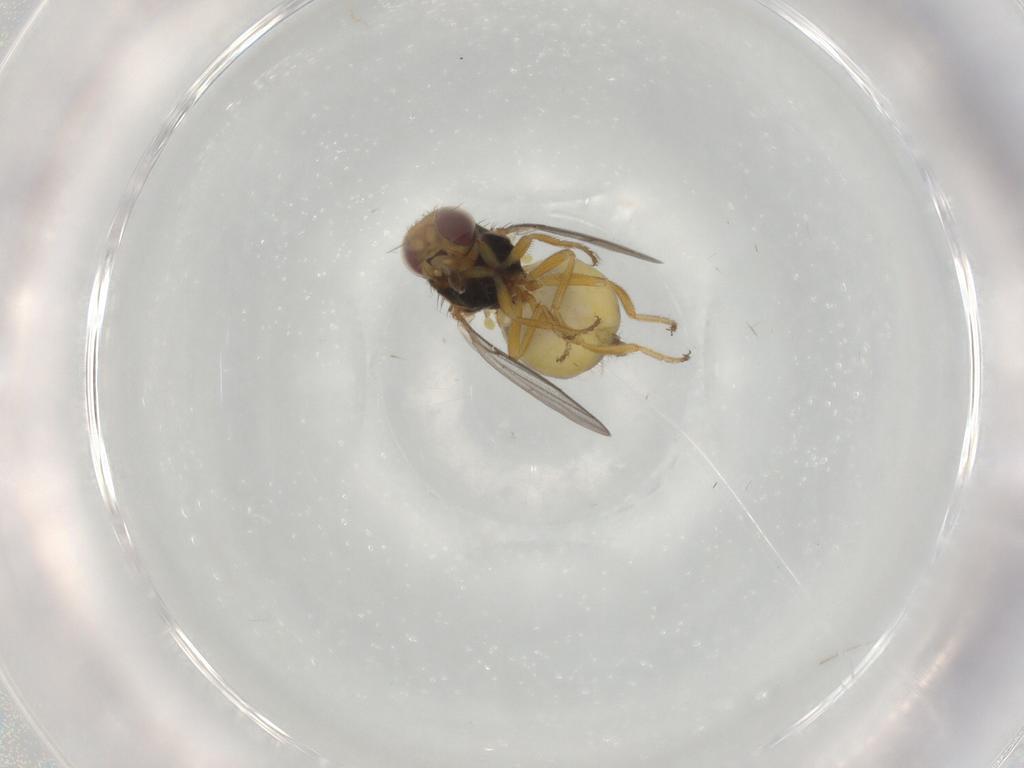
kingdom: Animalia
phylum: Arthropoda
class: Insecta
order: Diptera
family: Chloropidae
